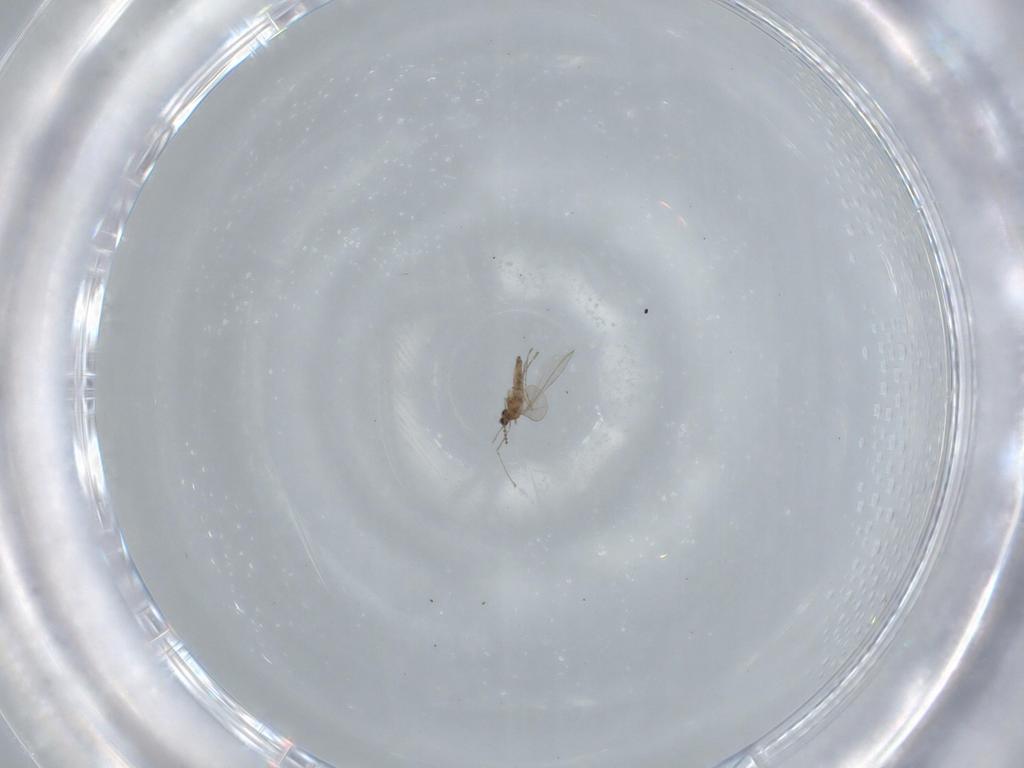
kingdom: Animalia
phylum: Arthropoda
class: Insecta
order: Diptera
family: Cecidomyiidae
